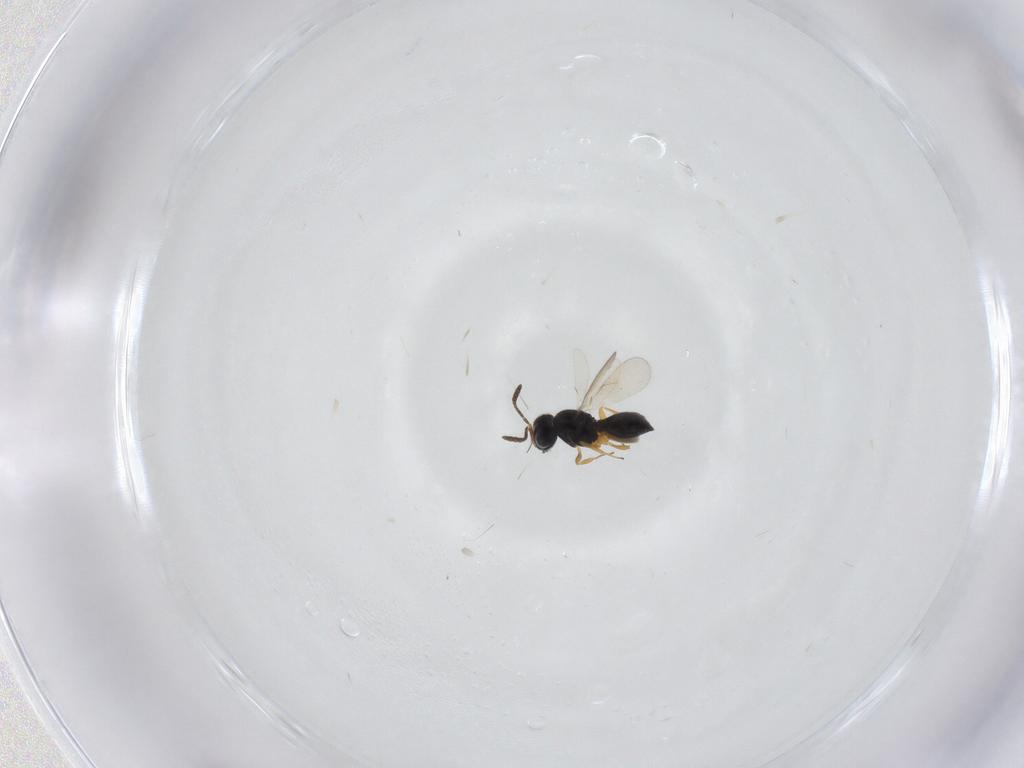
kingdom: Animalia
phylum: Arthropoda
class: Insecta
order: Hymenoptera
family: Scelionidae
